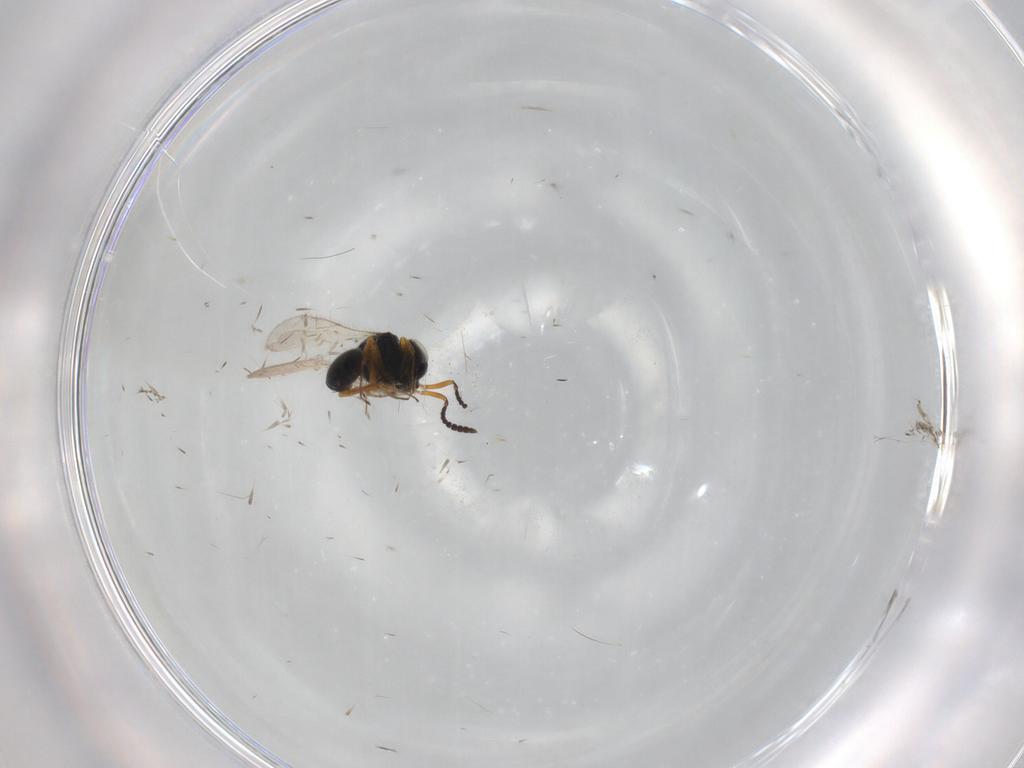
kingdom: Animalia
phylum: Arthropoda
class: Insecta
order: Hymenoptera
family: Scelionidae
